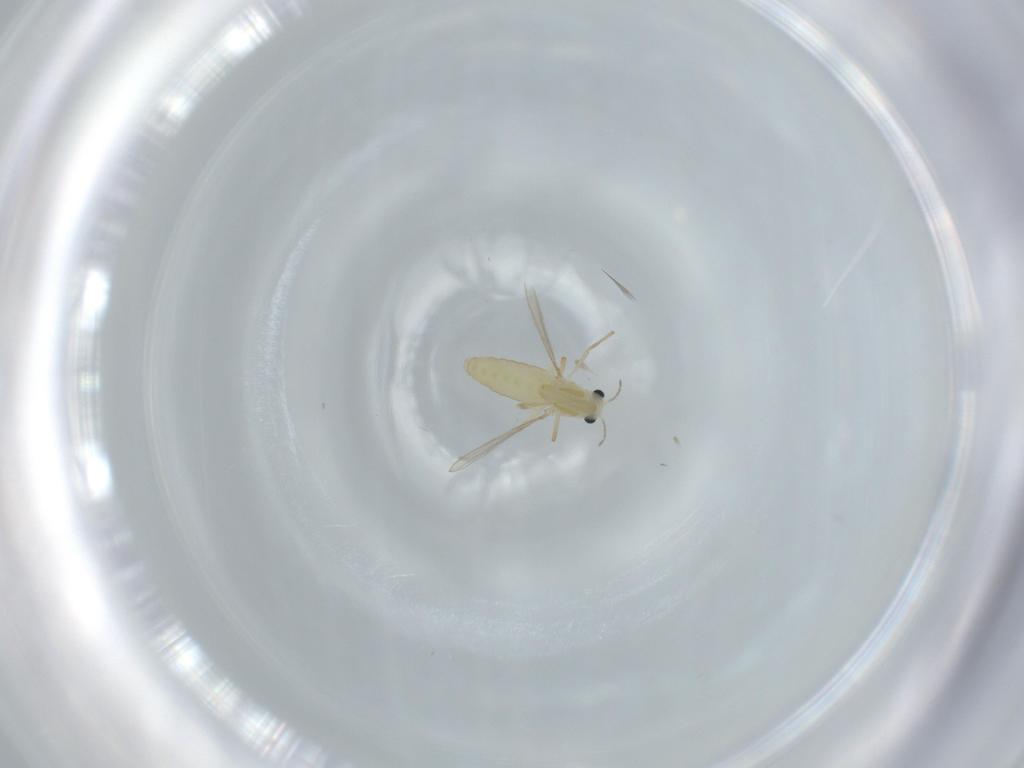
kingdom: Animalia
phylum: Arthropoda
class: Insecta
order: Diptera
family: Chironomidae
